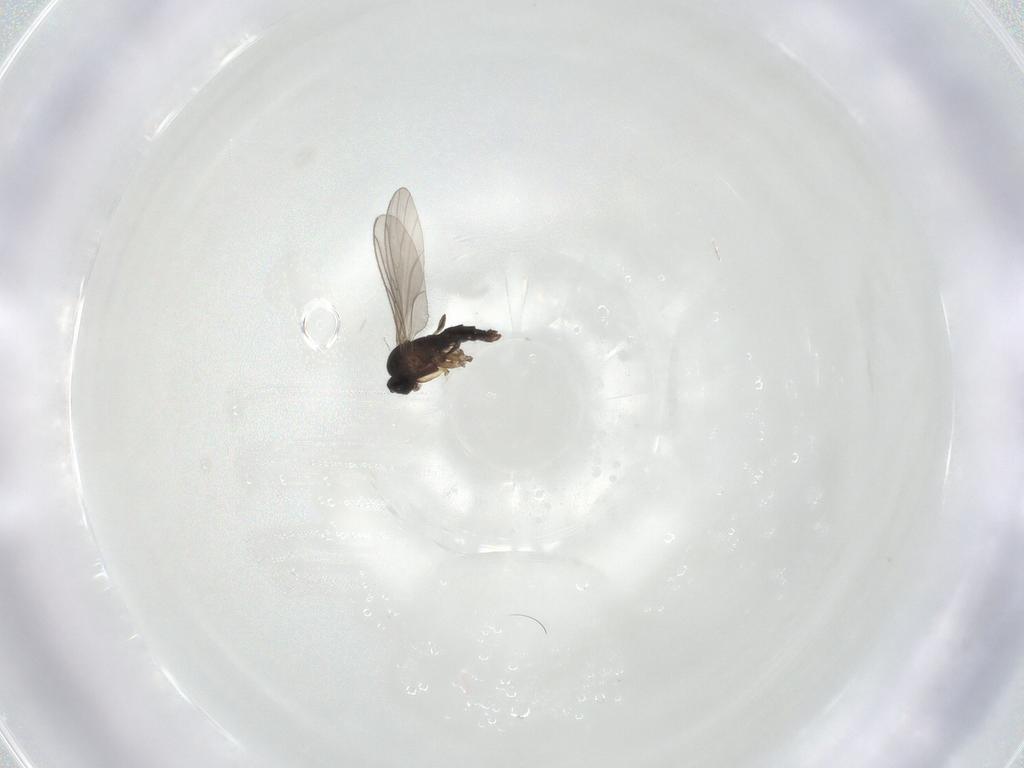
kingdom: Animalia
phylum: Arthropoda
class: Insecta
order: Diptera
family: Sciaridae
